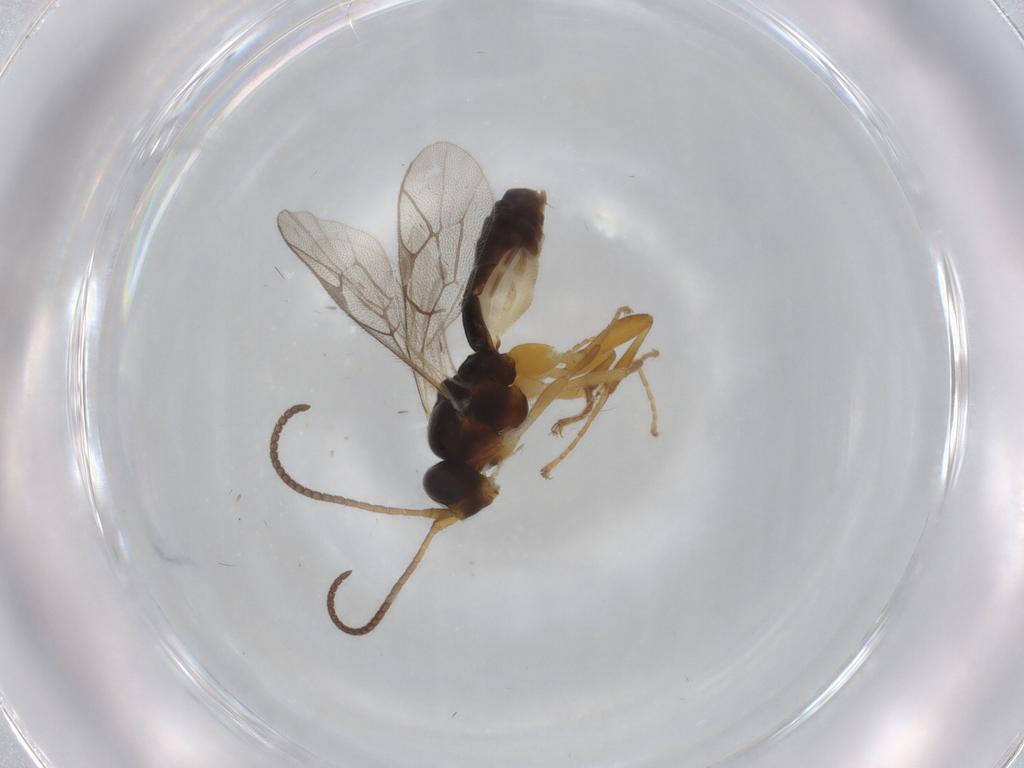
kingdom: Animalia
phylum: Arthropoda
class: Insecta
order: Hymenoptera
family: Ichneumonidae
